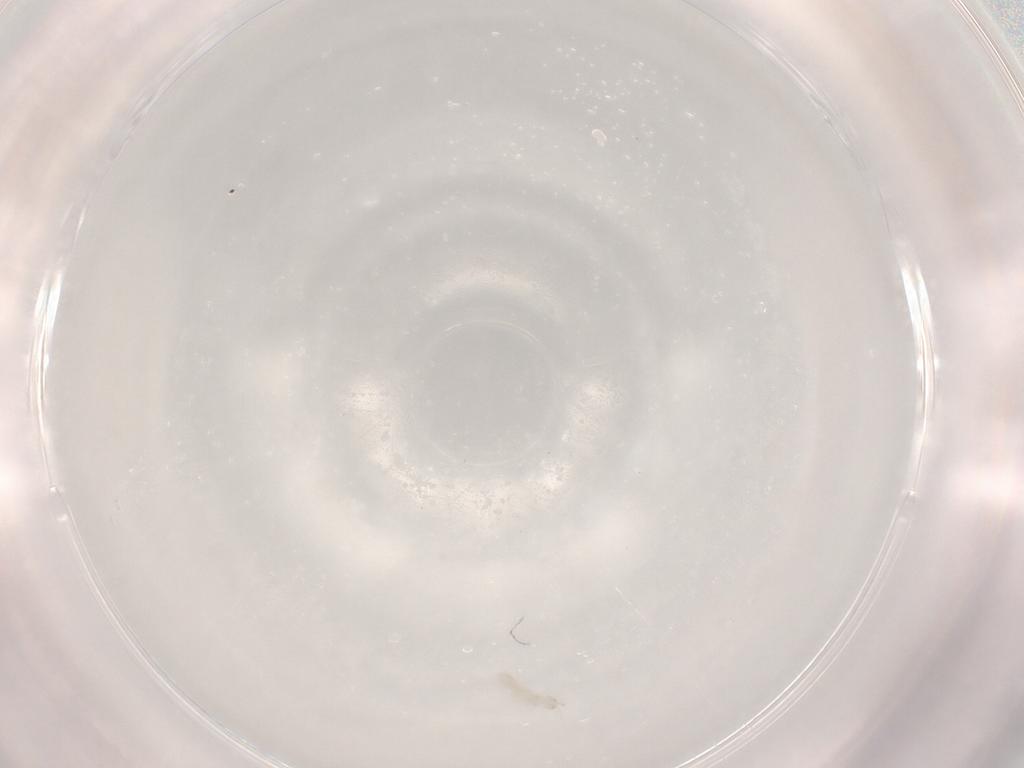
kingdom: Animalia
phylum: Arthropoda
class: Collembola
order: Entomobryomorpha
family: Isotomidae
